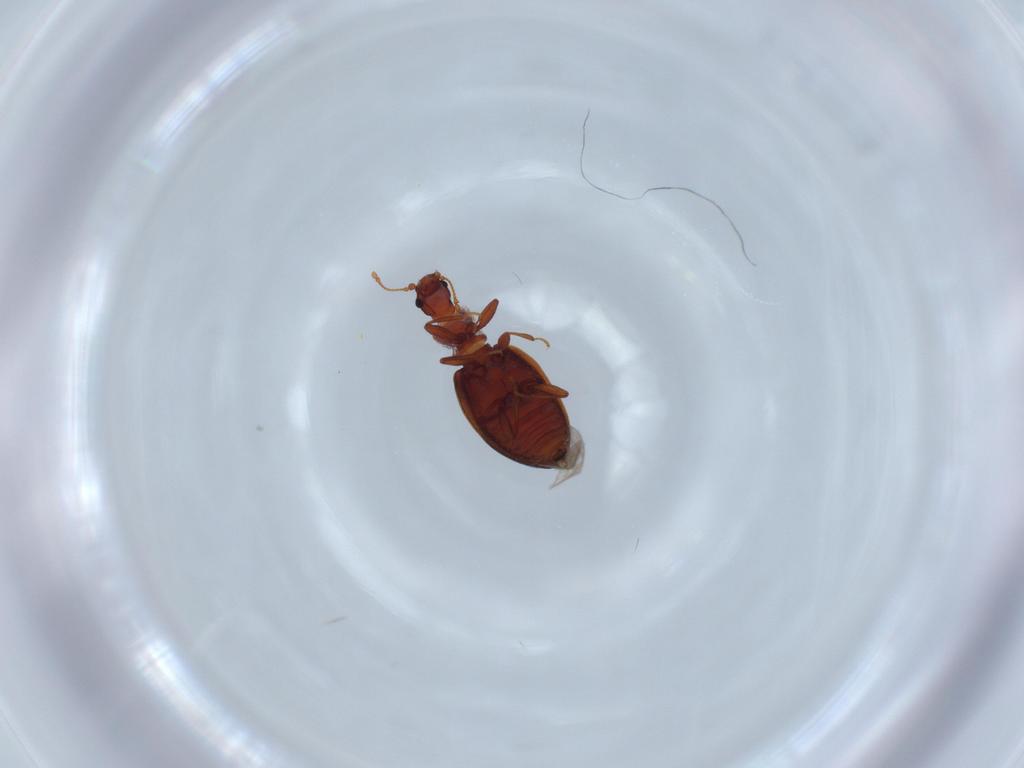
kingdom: Animalia
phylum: Arthropoda
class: Insecta
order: Coleoptera
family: Latridiidae
